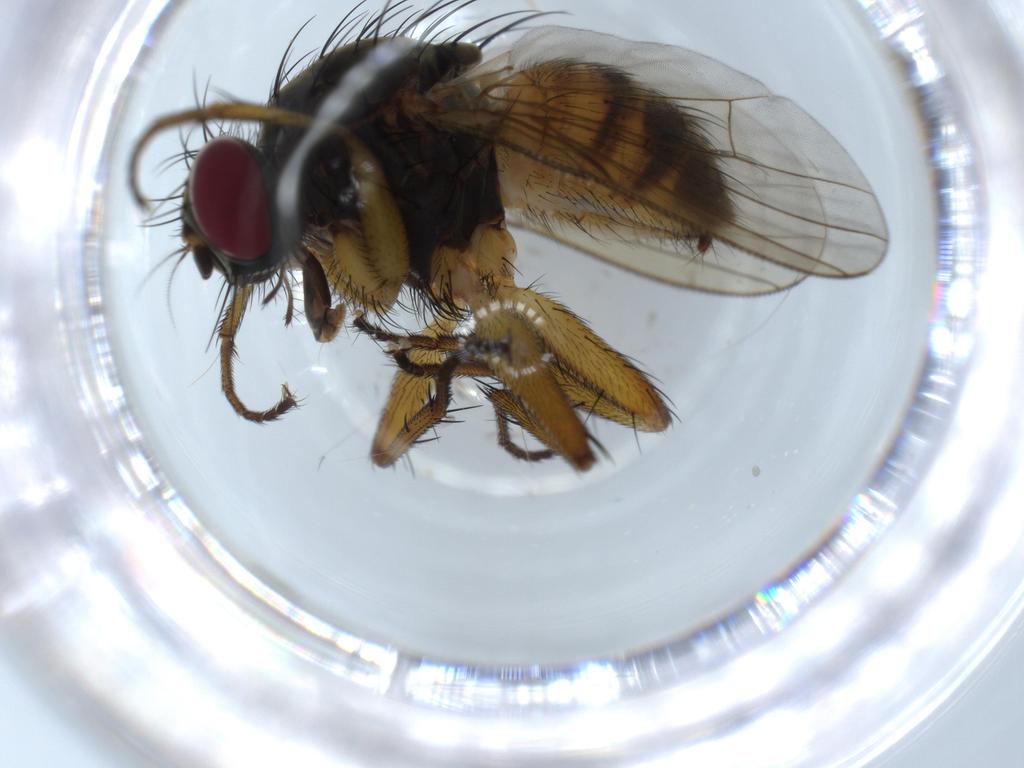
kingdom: Animalia
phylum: Arthropoda
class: Insecta
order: Diptera
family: Muscidae
